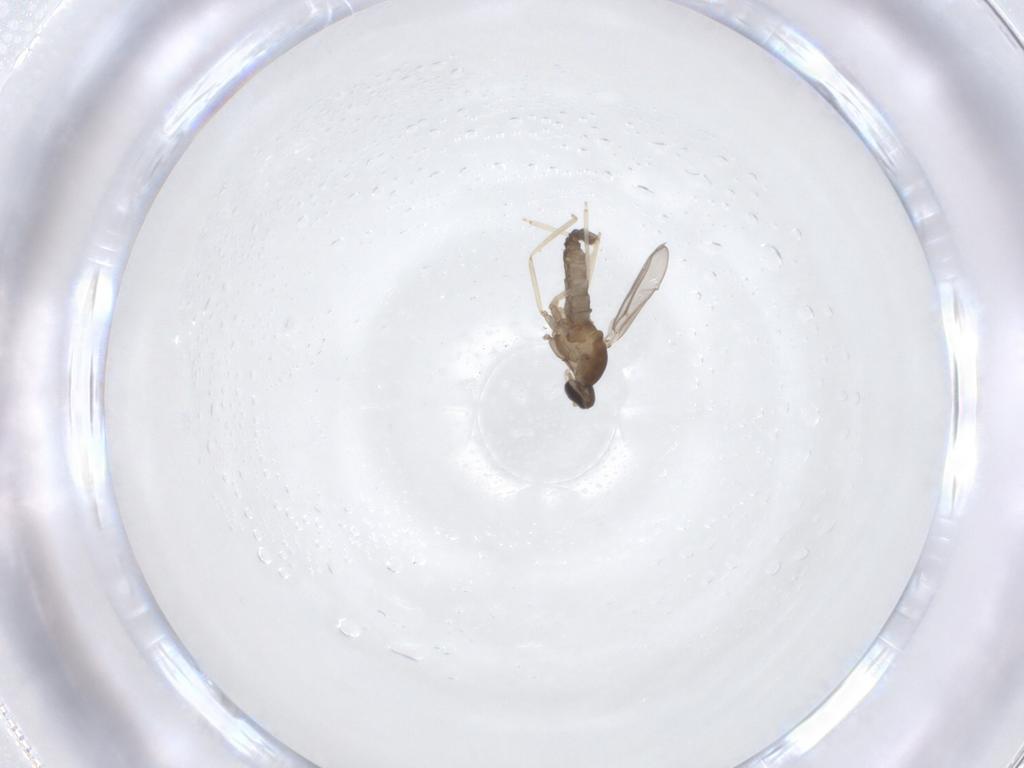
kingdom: Animalia
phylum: Arthropoda
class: Insecta
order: Diptera
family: Cecidomyiidae
